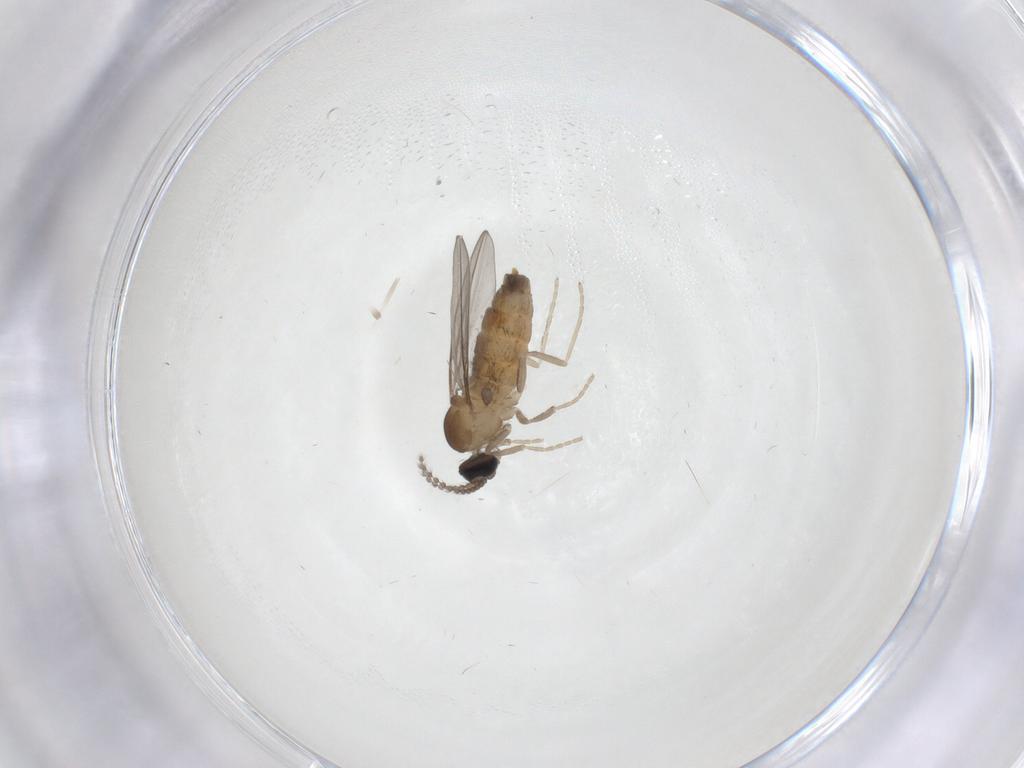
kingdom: Animalia
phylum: Arthropoda
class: Insecta
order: Diptera
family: Cecidomyiidae
